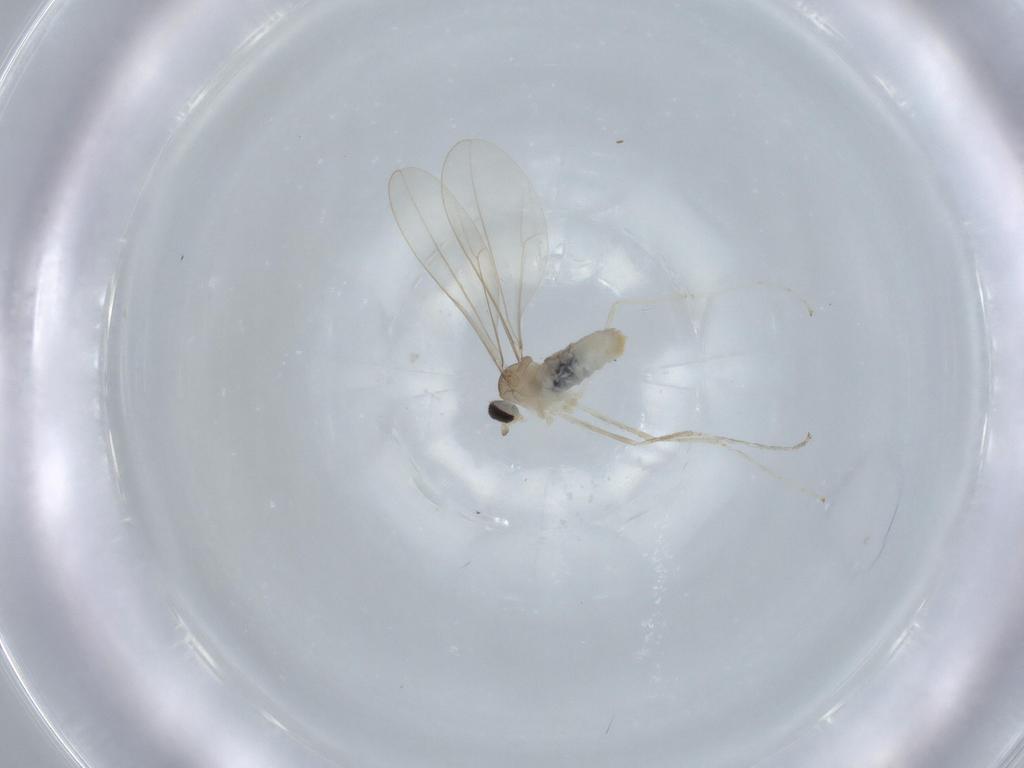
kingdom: Animalia
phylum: Arthropoda
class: Insecta
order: Diptera
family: Cecidomyiidae
